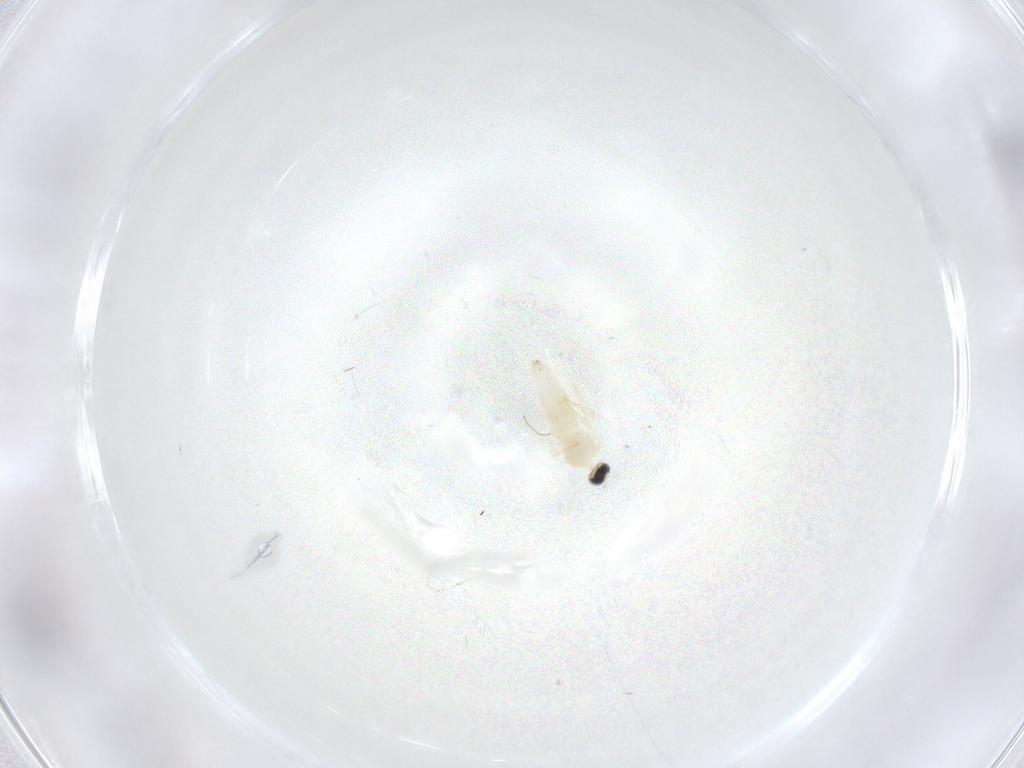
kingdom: Animalia
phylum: Arthropoda
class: Insecta
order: Diptera
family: Cecidomyiidae
